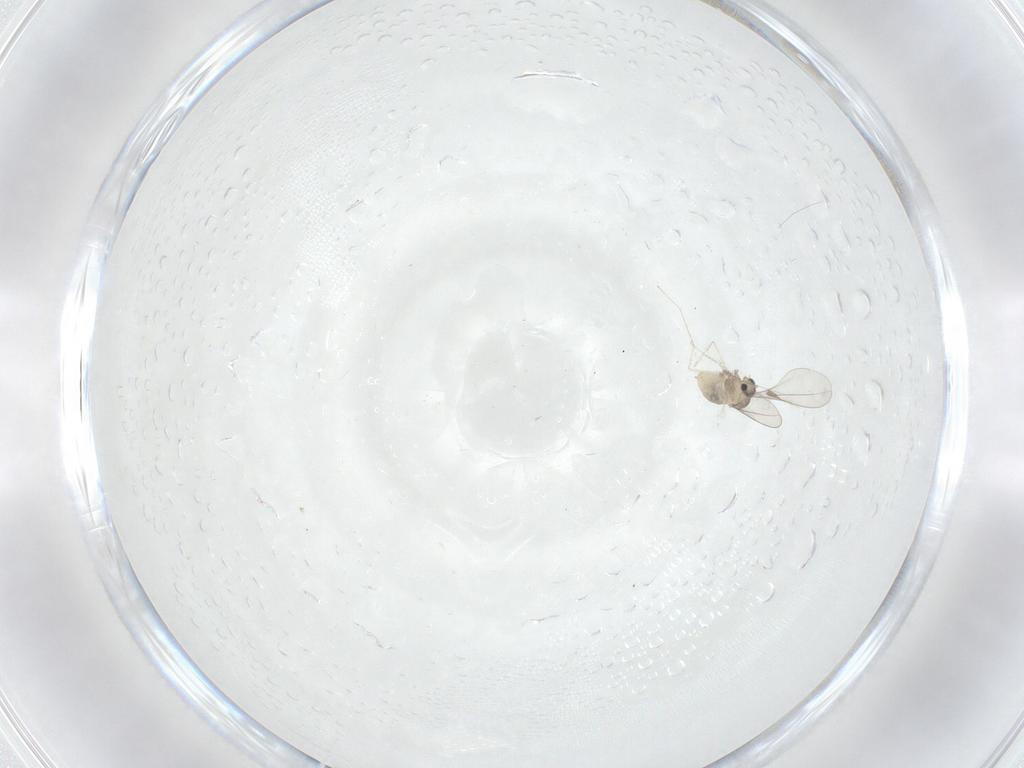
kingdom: Animalia
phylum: Arthropoda
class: Insecta
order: Diptera
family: Cecidomyiidae
